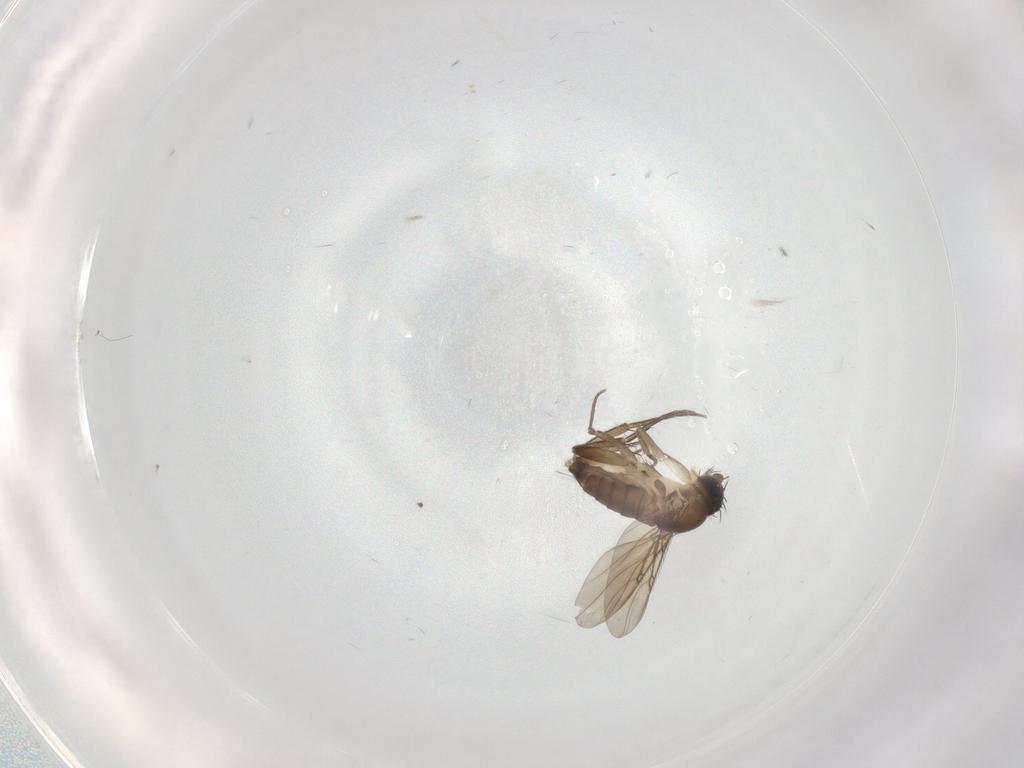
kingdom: Animalia
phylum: Arthropoda
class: Insecta
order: Diptera
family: Phoridae
